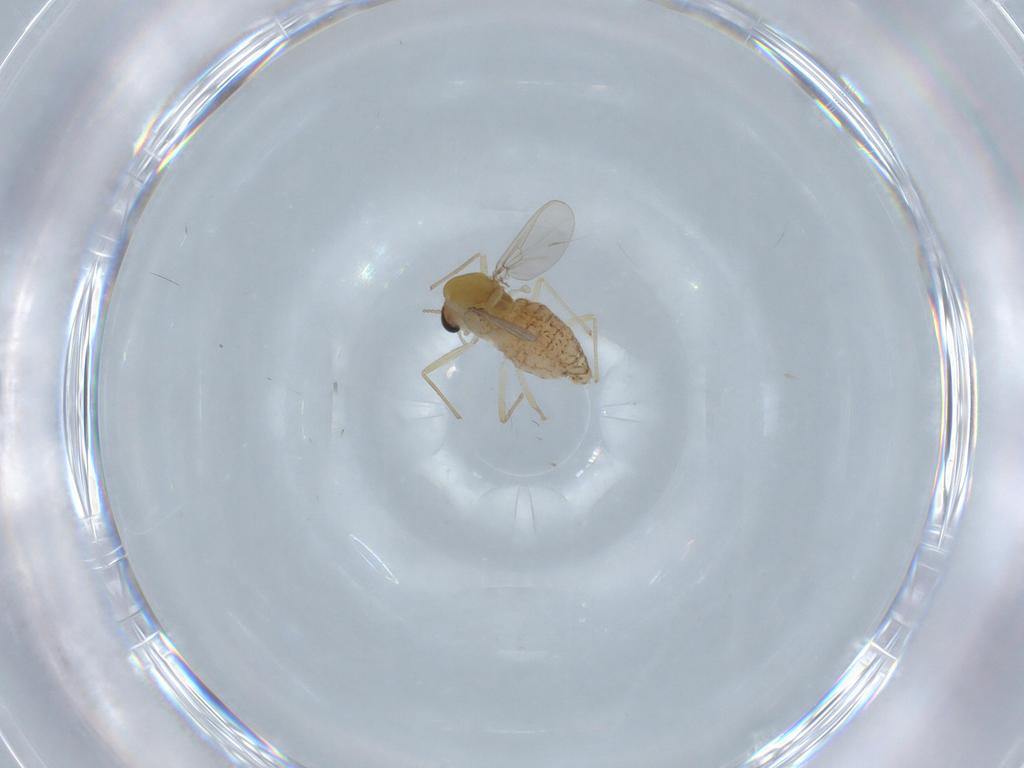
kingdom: Animalia
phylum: Arthropoda
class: Insecta
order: Diptera
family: Chironomidae
